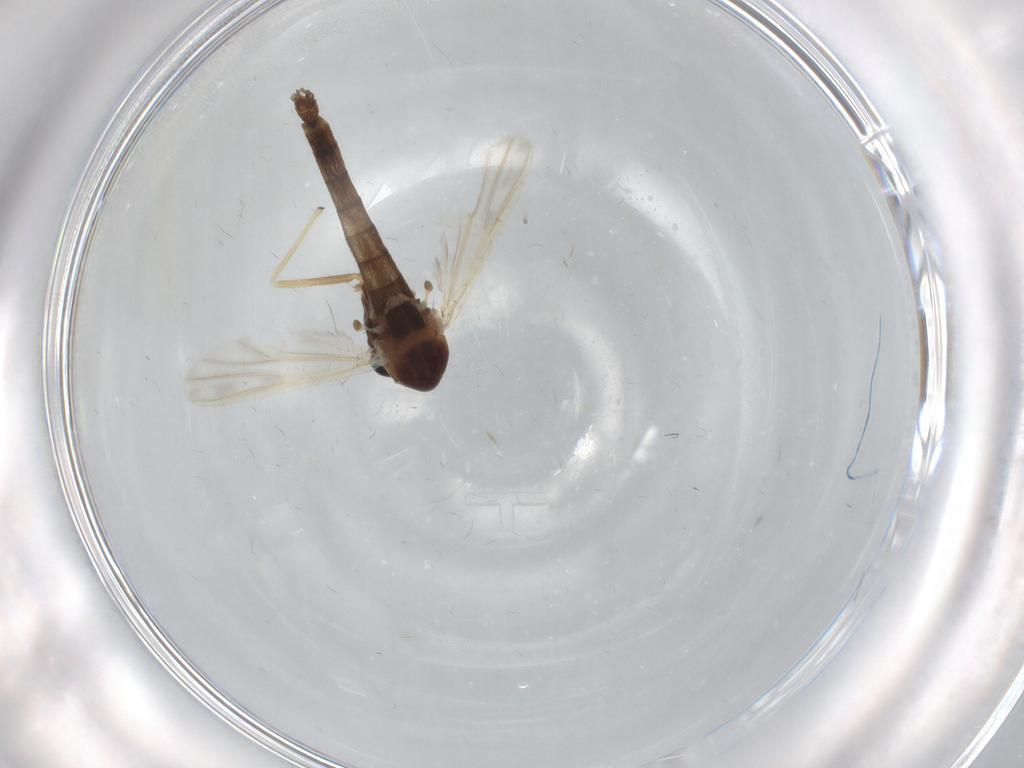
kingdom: Animalia
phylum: Arthropoda
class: Insecta
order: Diptera
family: Chironomidae
